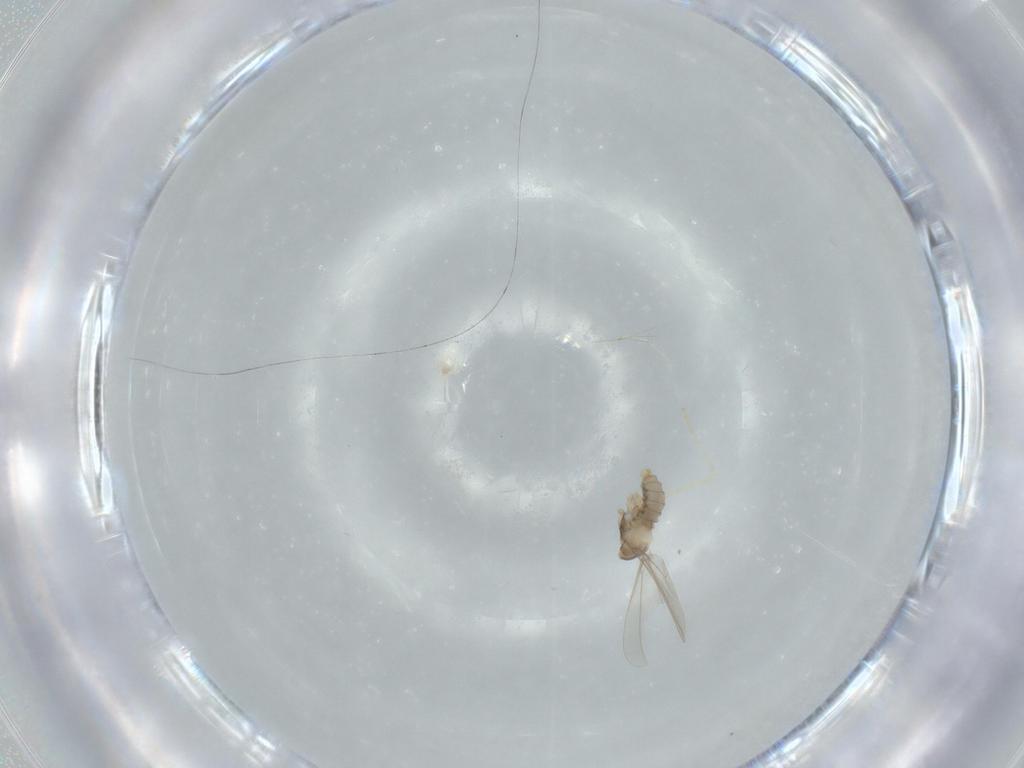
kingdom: Animalia
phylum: Arthropoda
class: Insecta
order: Diptera
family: Cecidomyiidae
